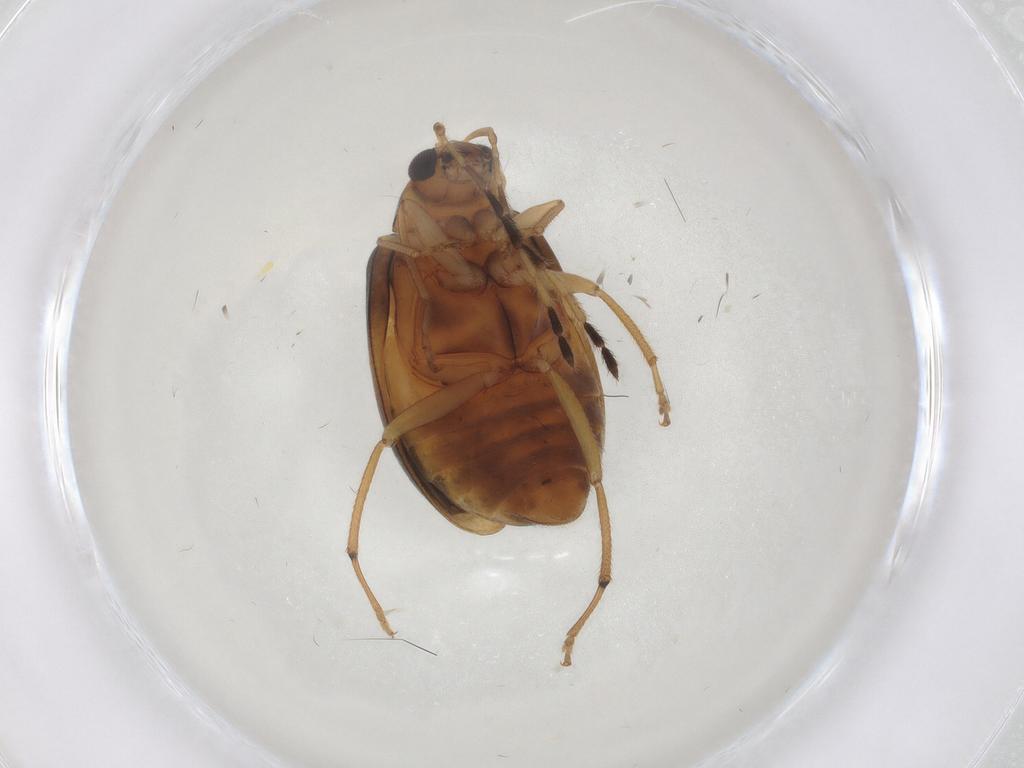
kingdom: Animalia
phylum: Arthropoda
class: Insecta
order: Coleoptera
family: Chrysomelidae
